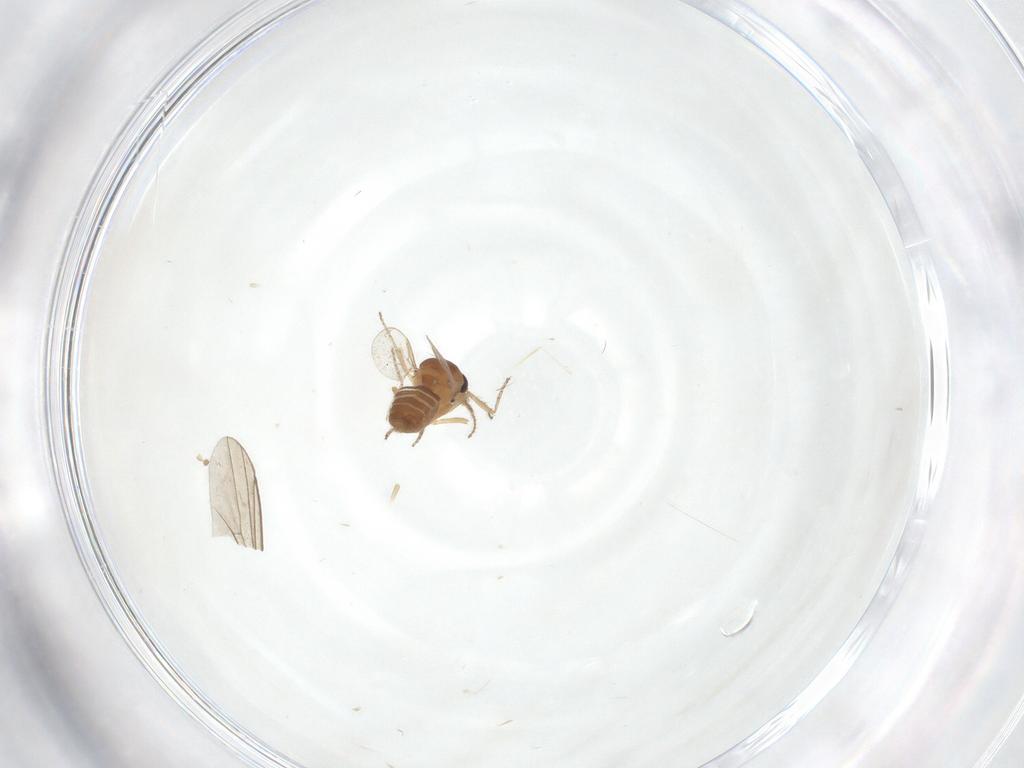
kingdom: Animalia
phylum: Arthropoda
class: Insecta
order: Diptera
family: Ceratopogonidae
